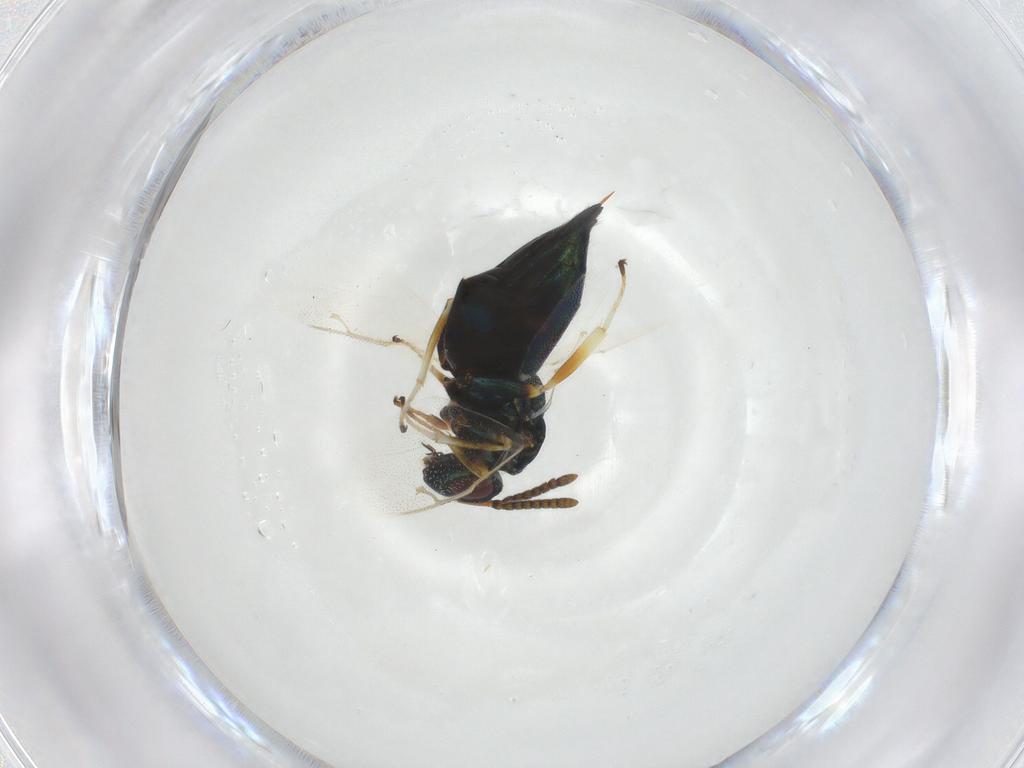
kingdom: Animalia
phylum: Arthropoda
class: Insecta
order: Hymenoptera
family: Pteromalidae
